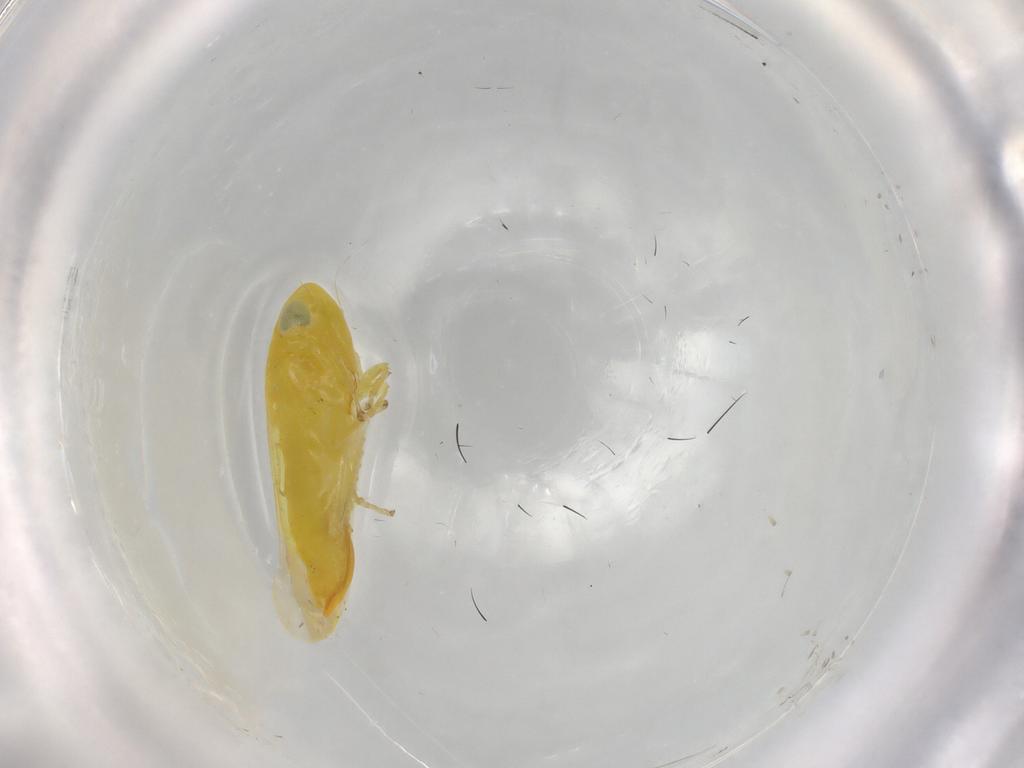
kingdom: Animalia
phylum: Arthropoda
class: Insecta
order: Hemiptera
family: Cicadellidae
